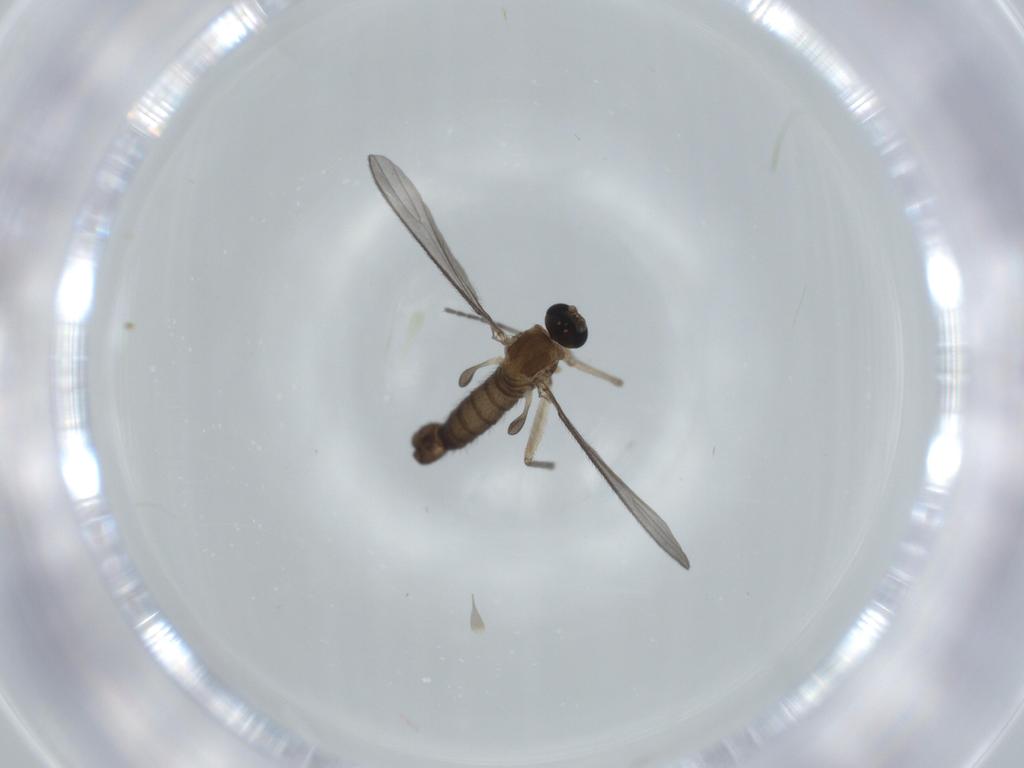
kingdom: Animalia
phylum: Arthropoda
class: Insecta
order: Diptera
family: Sciaridae
